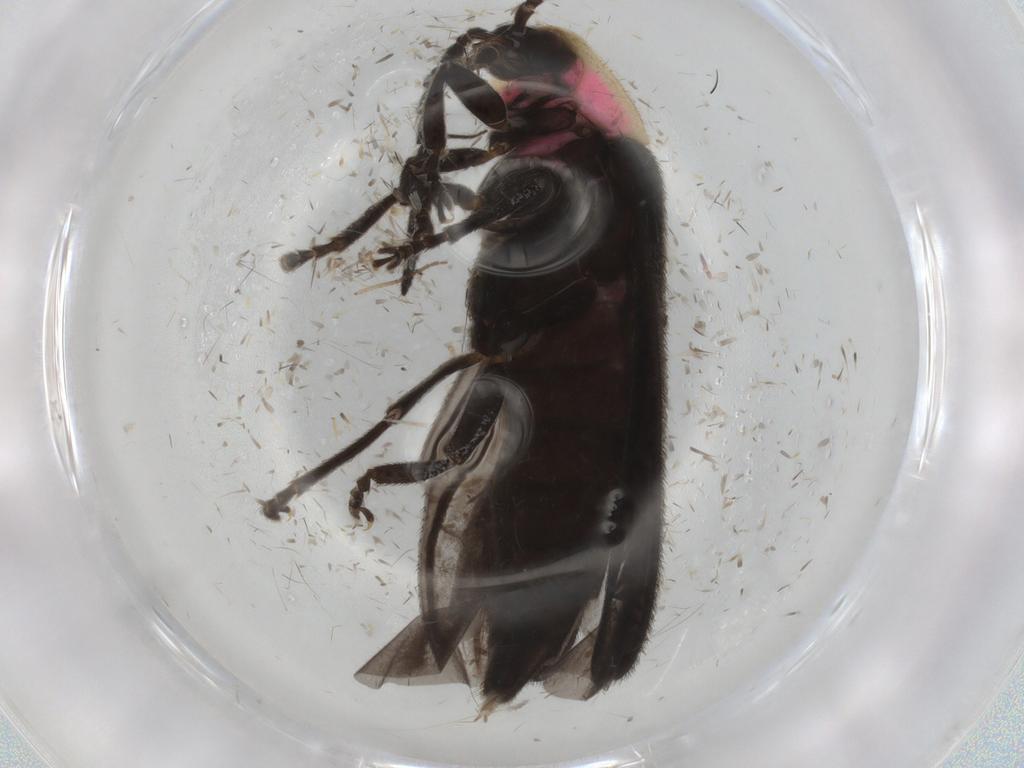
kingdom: Animalia
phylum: Arthropoda
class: Insecta
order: Coleoptera
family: Scirtidae
